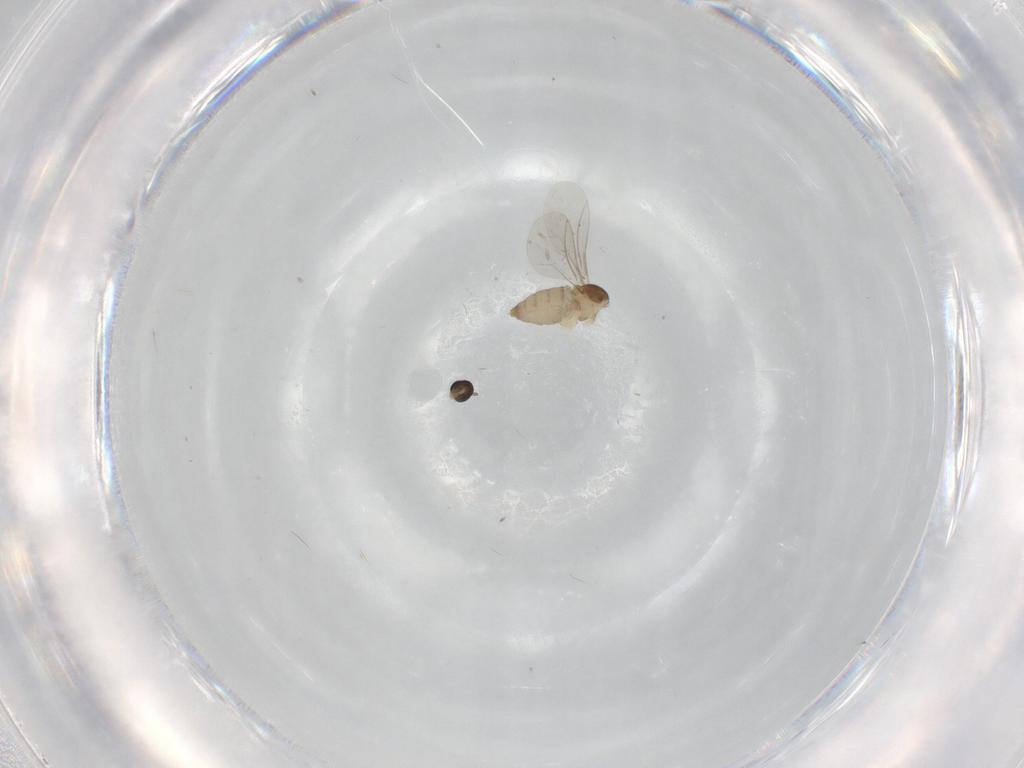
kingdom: Animalia
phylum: Arthropoda
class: Insecta
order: Diptera
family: Cecidomyiidae
